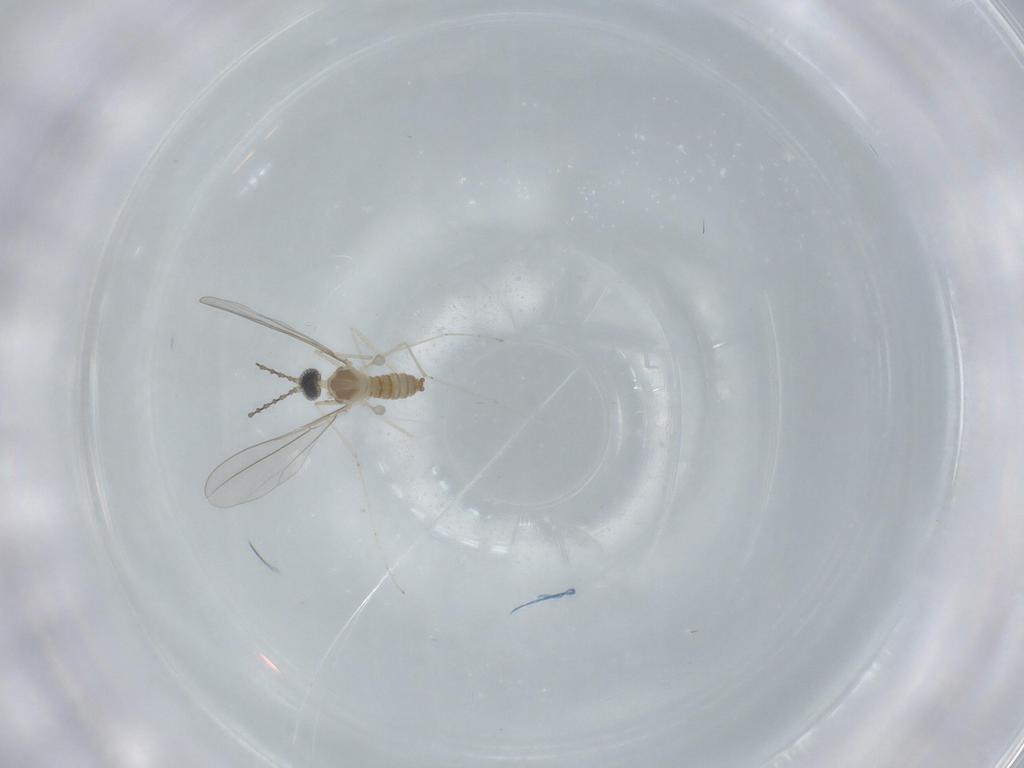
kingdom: Animalia
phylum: Arthropoda
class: Insecta
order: Diptera
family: Cecidomyiidae
